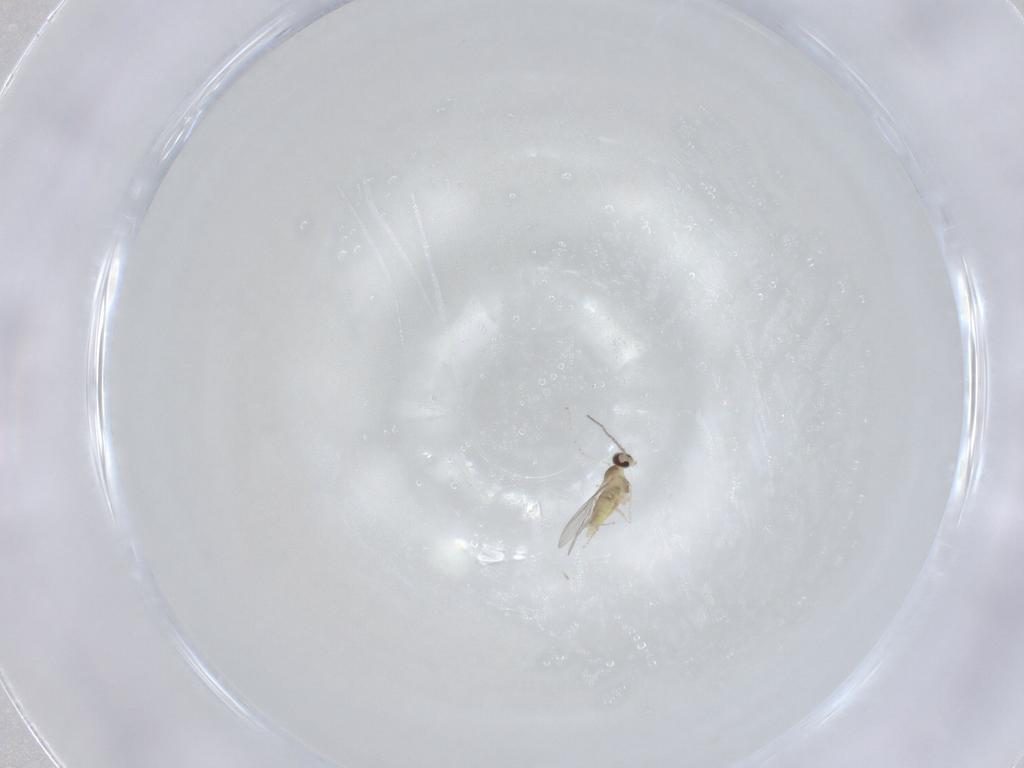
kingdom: Animalia
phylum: Arthropoda
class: Insecta
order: Diptera
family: Cecidomyiidae
